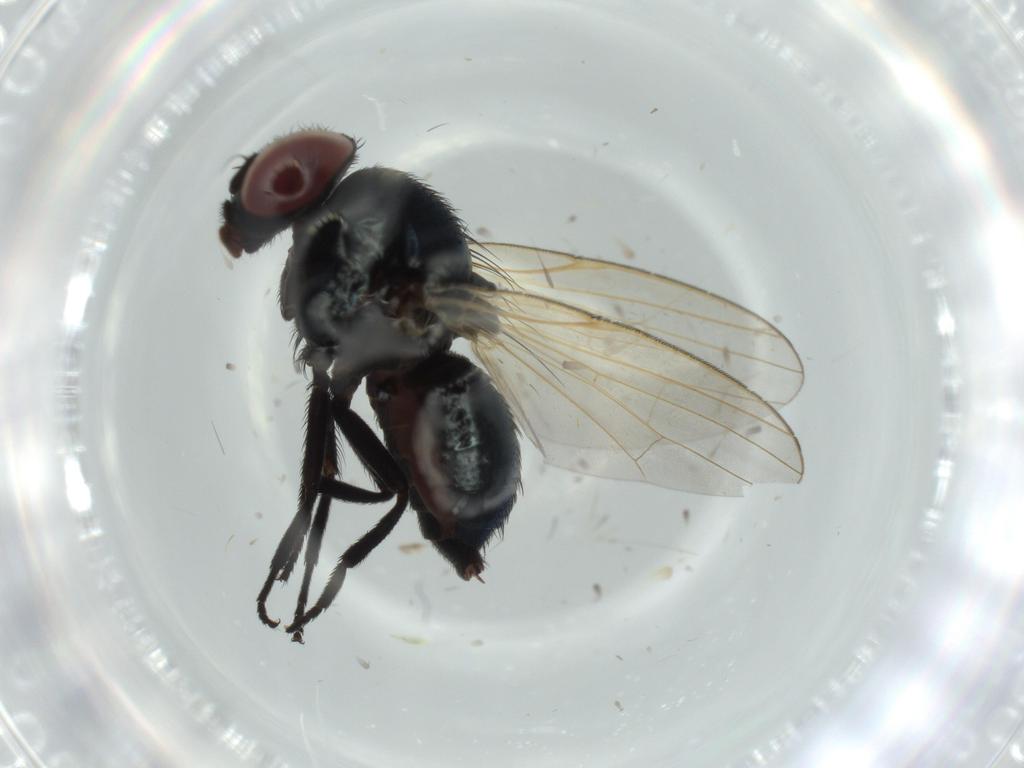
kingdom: Animalia
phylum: Arthropoda
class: Insecta
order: Diptera
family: Lonchaeidae
